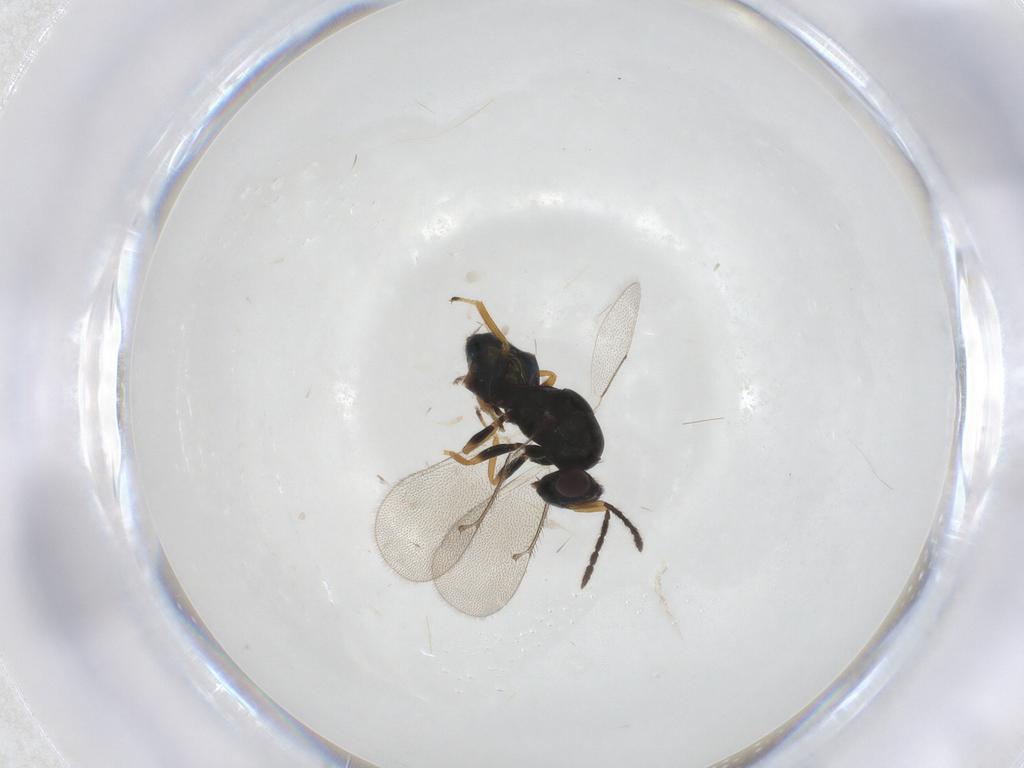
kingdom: Animalia
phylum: Arthropoda
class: Insecta
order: Hymenoptera
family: Eulophidae
